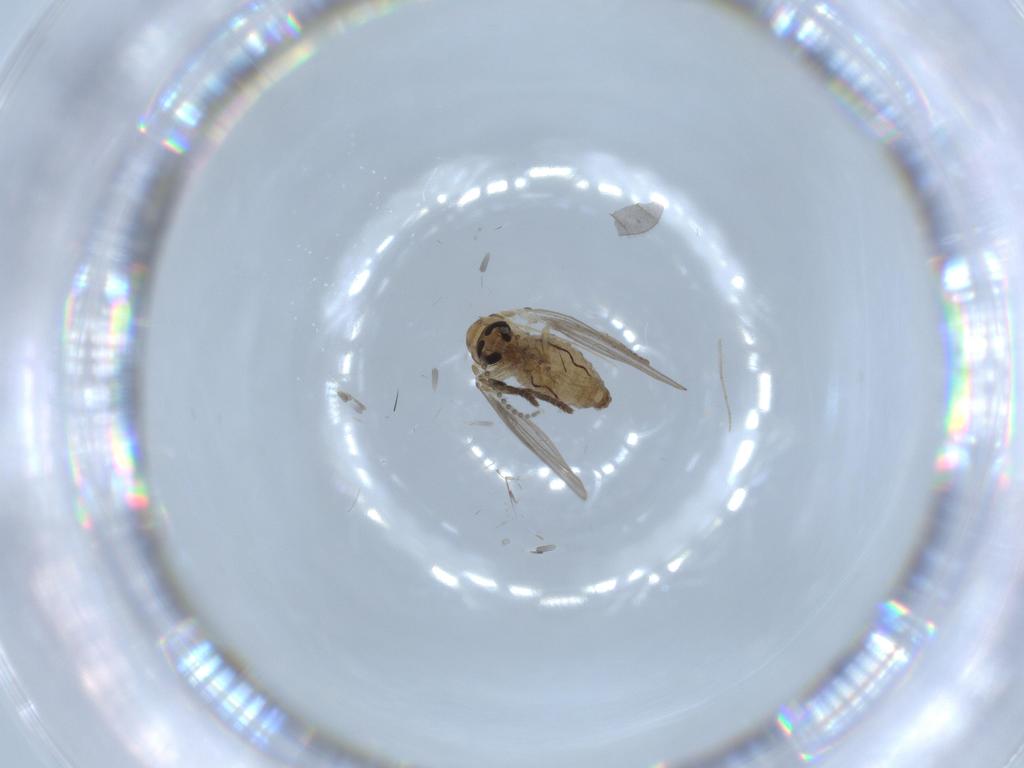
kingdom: Animalia
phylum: Arthropoda
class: Insecta
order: Diptera
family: Psychodidae
